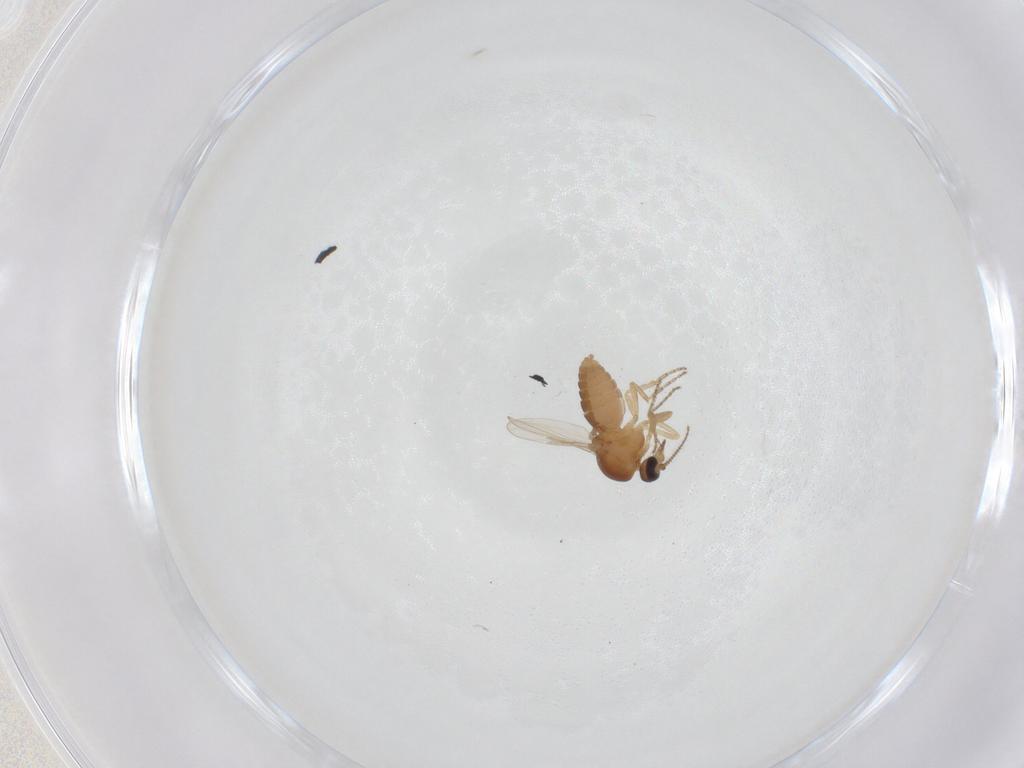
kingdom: Animalia
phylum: Arthropoda
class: Insecta
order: Diptera
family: Ceratopogonidae
